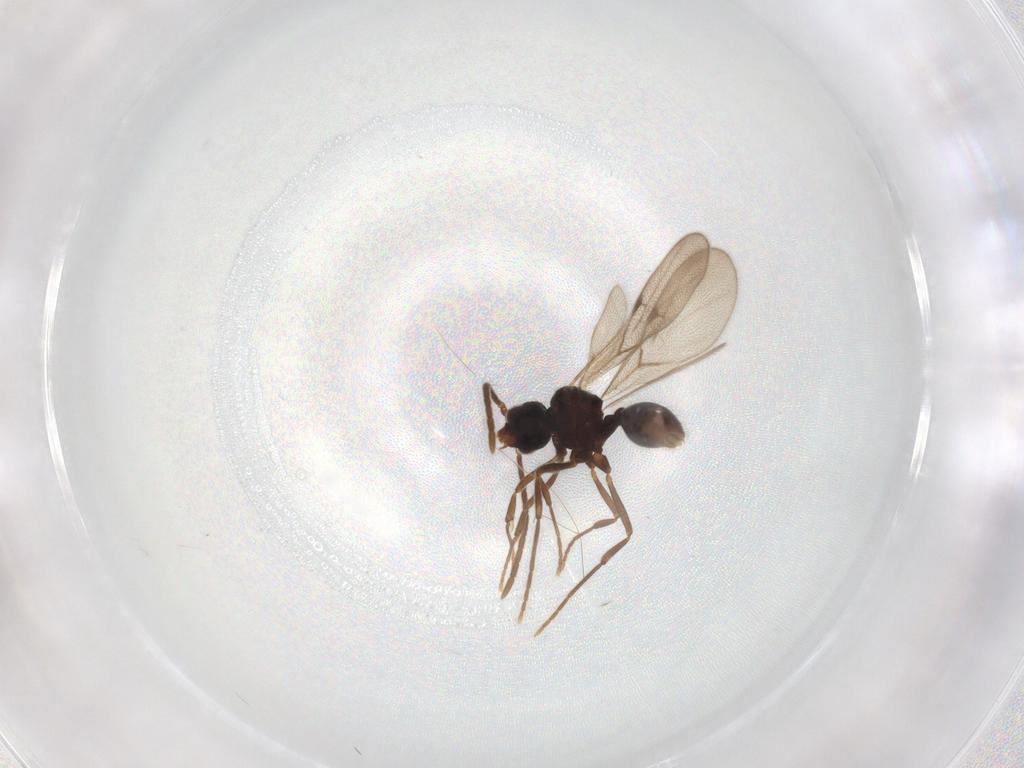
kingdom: Animalia
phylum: Arthropoda
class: Insecta
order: Hymenoptera
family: Formicidae
